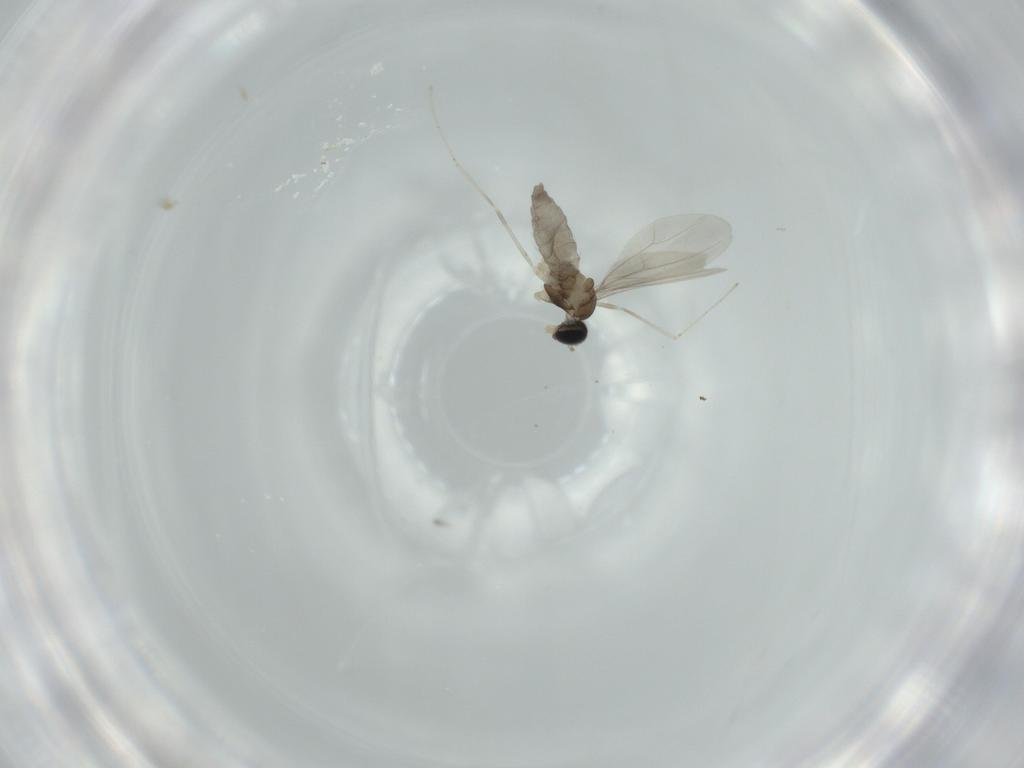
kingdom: Animalia
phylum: Arthropoda
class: Insecta
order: Diptera
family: Cecidomyiidae
